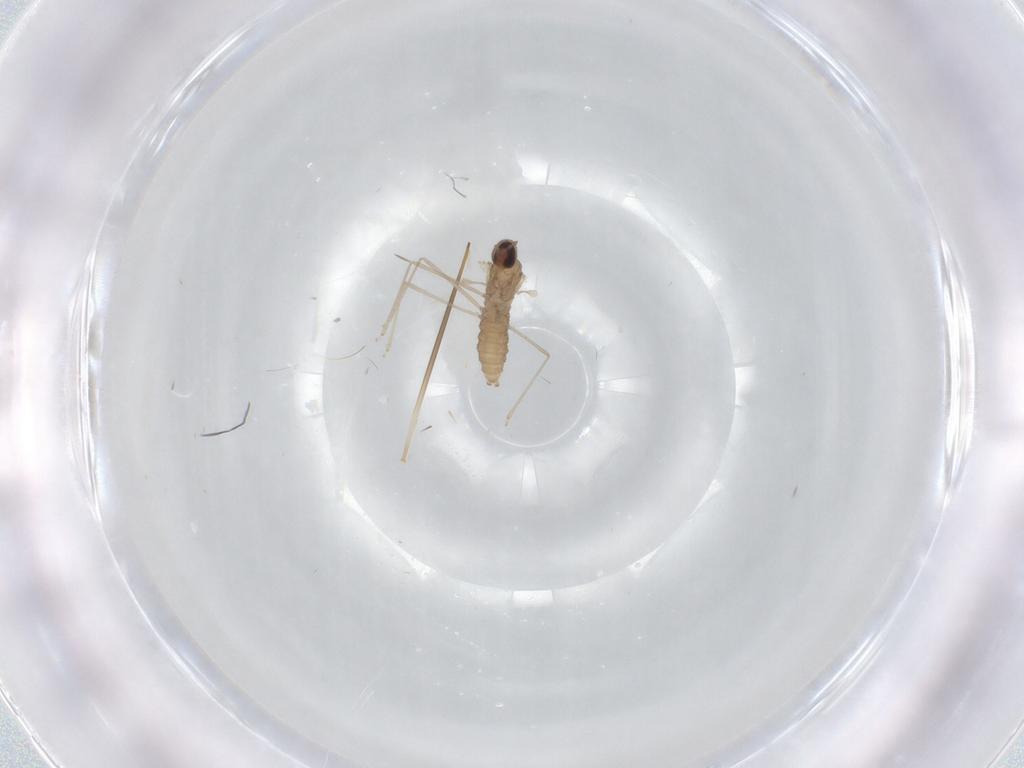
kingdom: Animalia
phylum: Arthropoda
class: Insecta
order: Diptera
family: Cecidomyiidae
